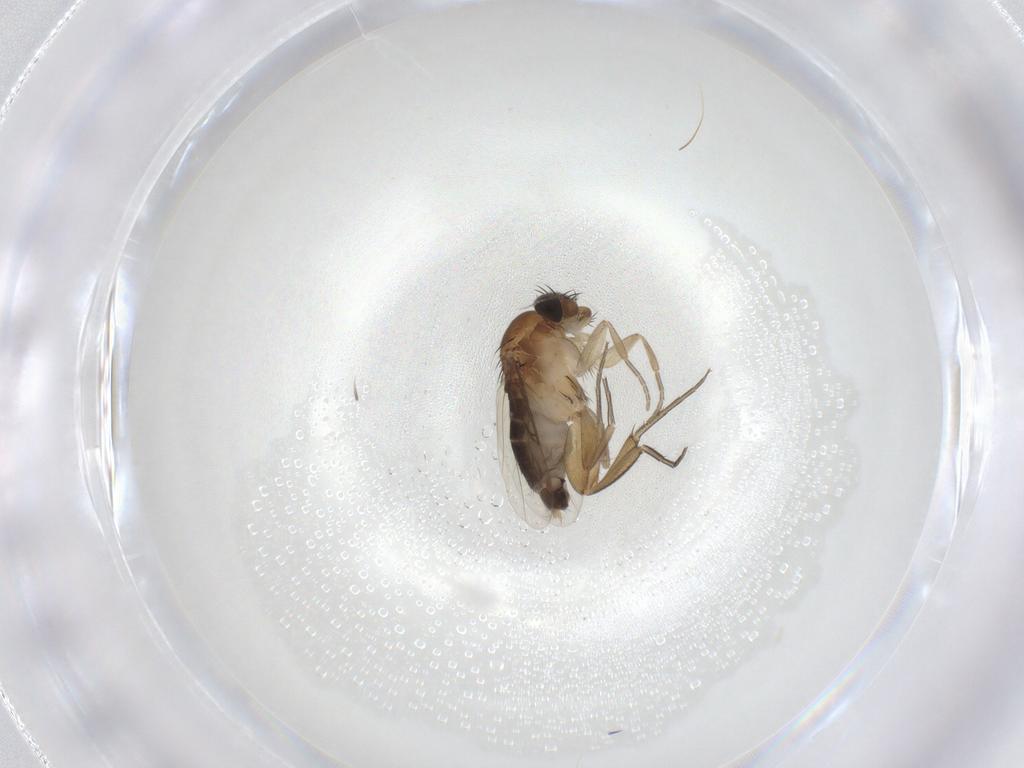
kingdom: Animalia
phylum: Arthropoda
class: Insecta
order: Diptera
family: Phoridae
